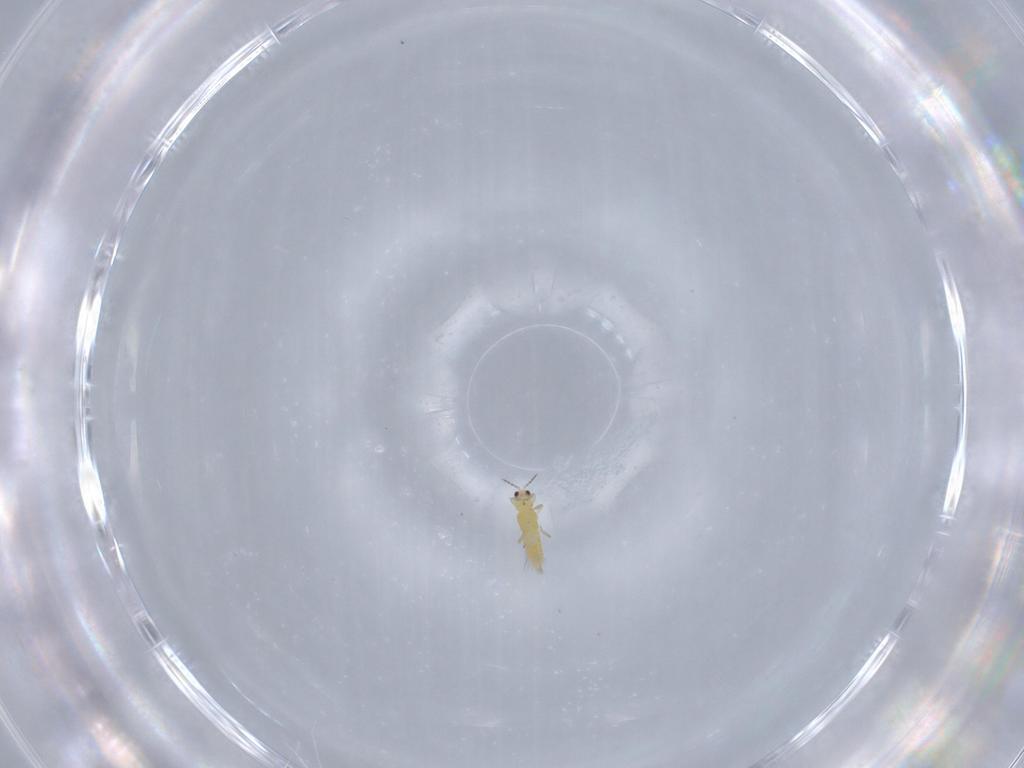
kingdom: Animalia
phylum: Arthropoda
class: Insecta
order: Thysanoptera
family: Thripidae
